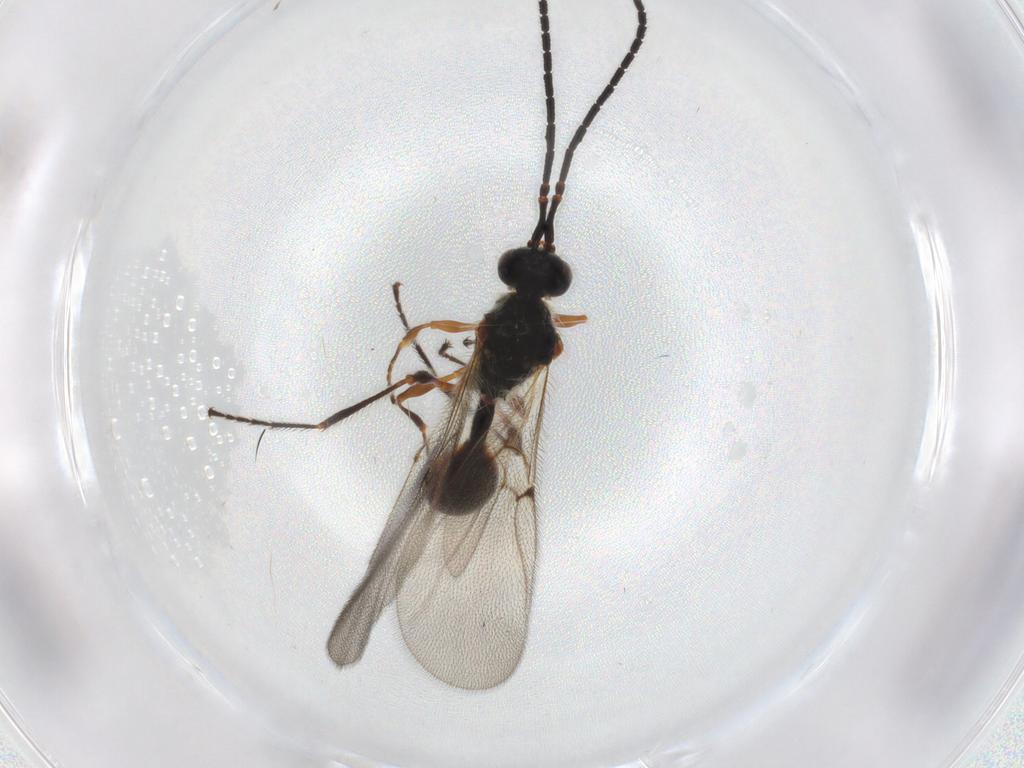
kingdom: Animalia
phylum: Arthropoda
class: Insecta
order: Hymenoptera
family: Diapriidae
